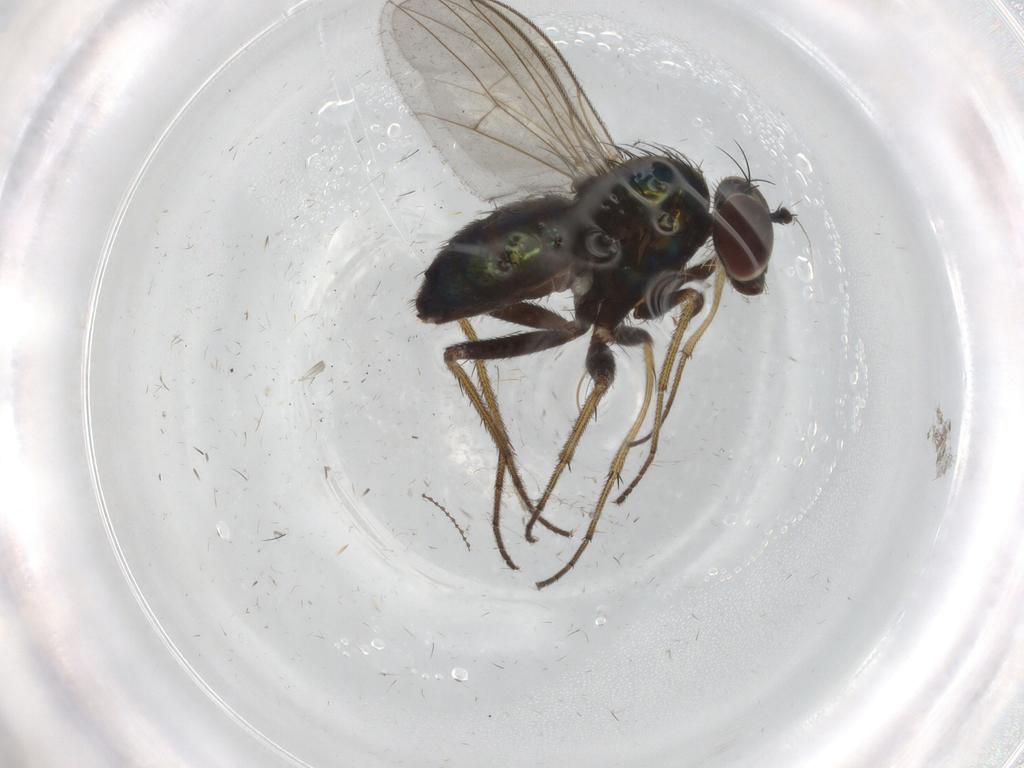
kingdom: Animalia
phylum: Arthropoda
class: Insecta
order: Diptera
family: Dolichopodidae
